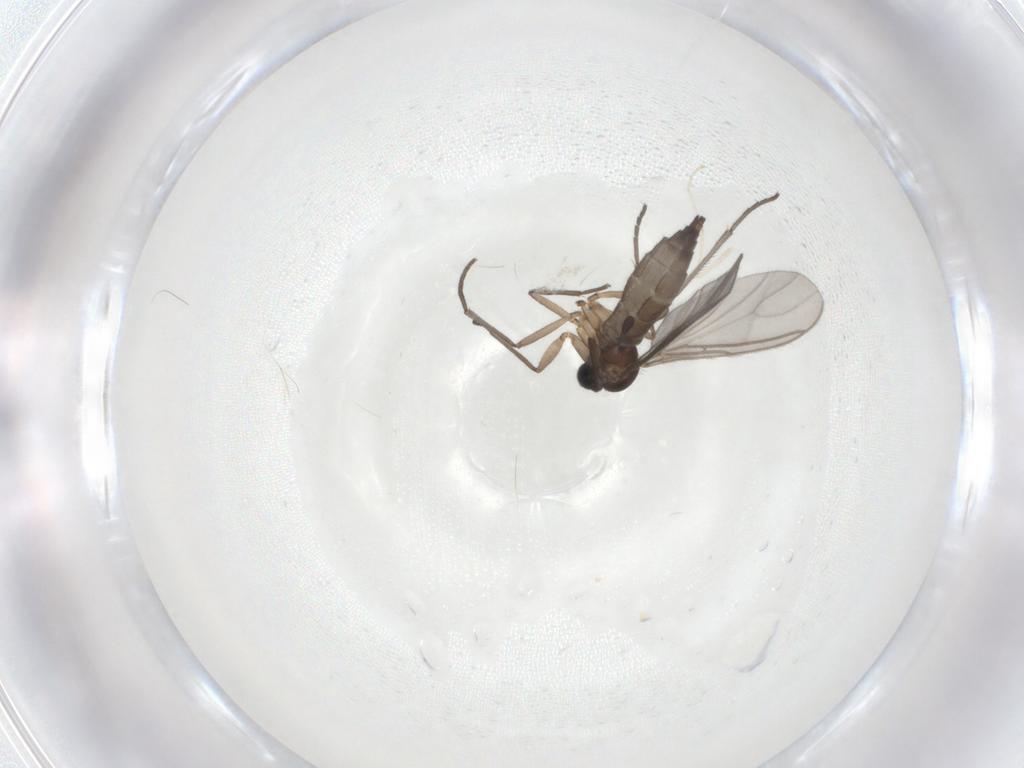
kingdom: Animalia
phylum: Arthropoda
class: Insecta
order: Diptera
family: Sciaridae
